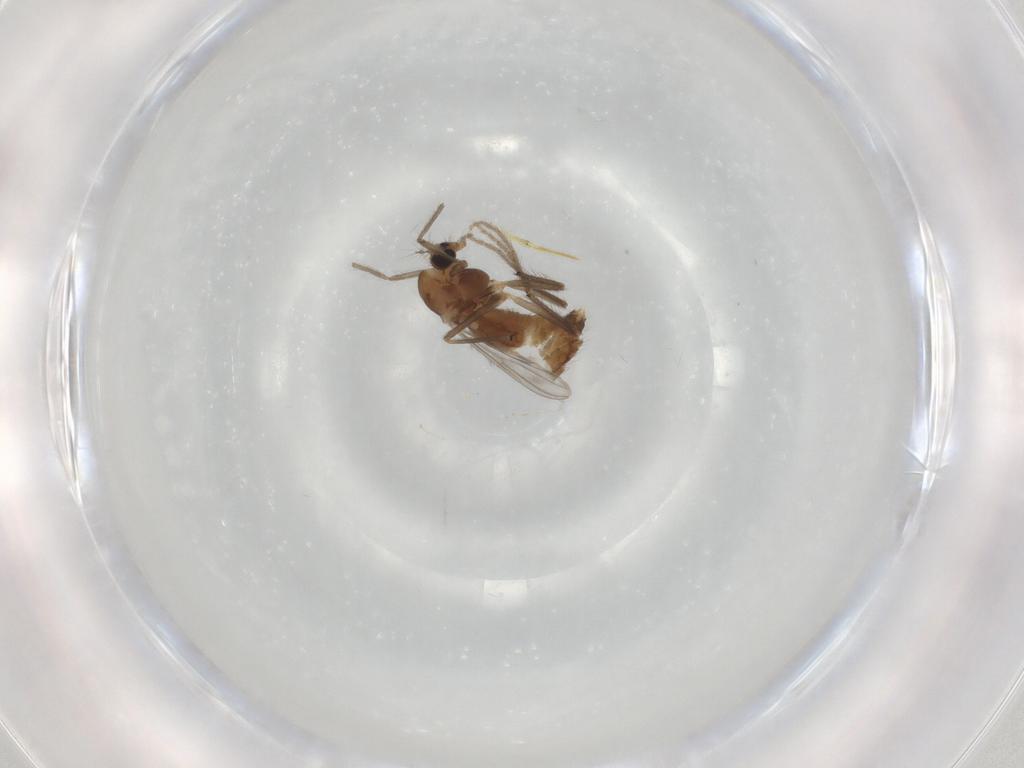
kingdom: Animalia
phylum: Arthropoda
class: Insecta
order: Diptera
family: Chironomidae
